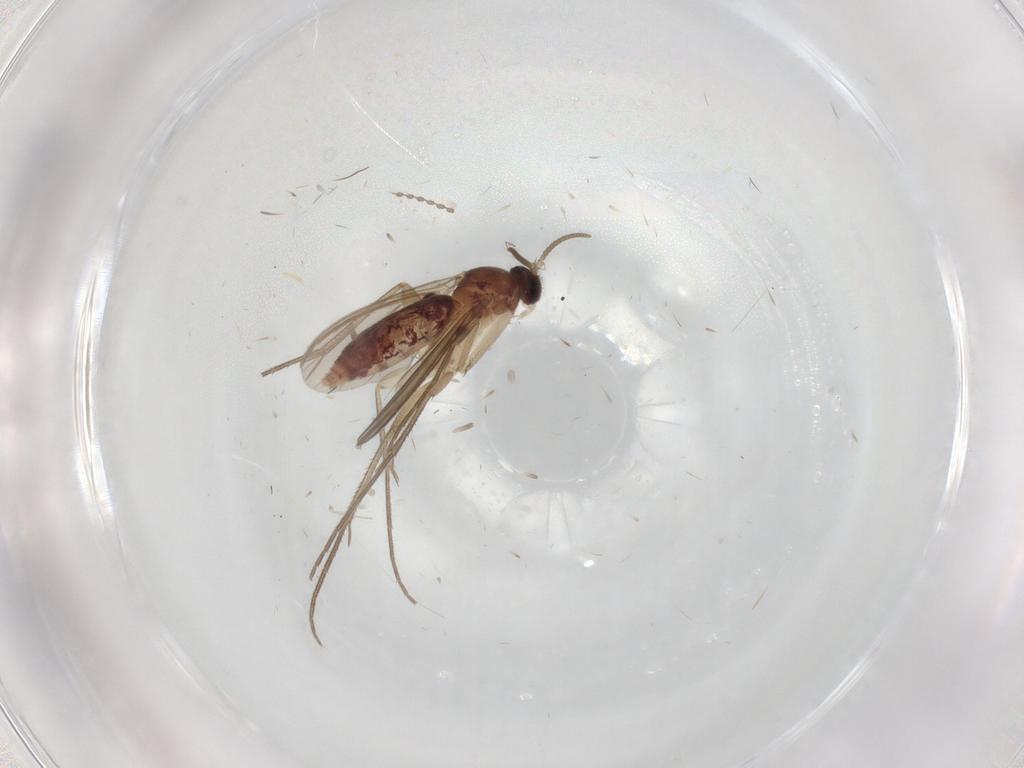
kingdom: Animalia
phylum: Arthropoda
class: Insecta
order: Diptera
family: Mycetophilidae
